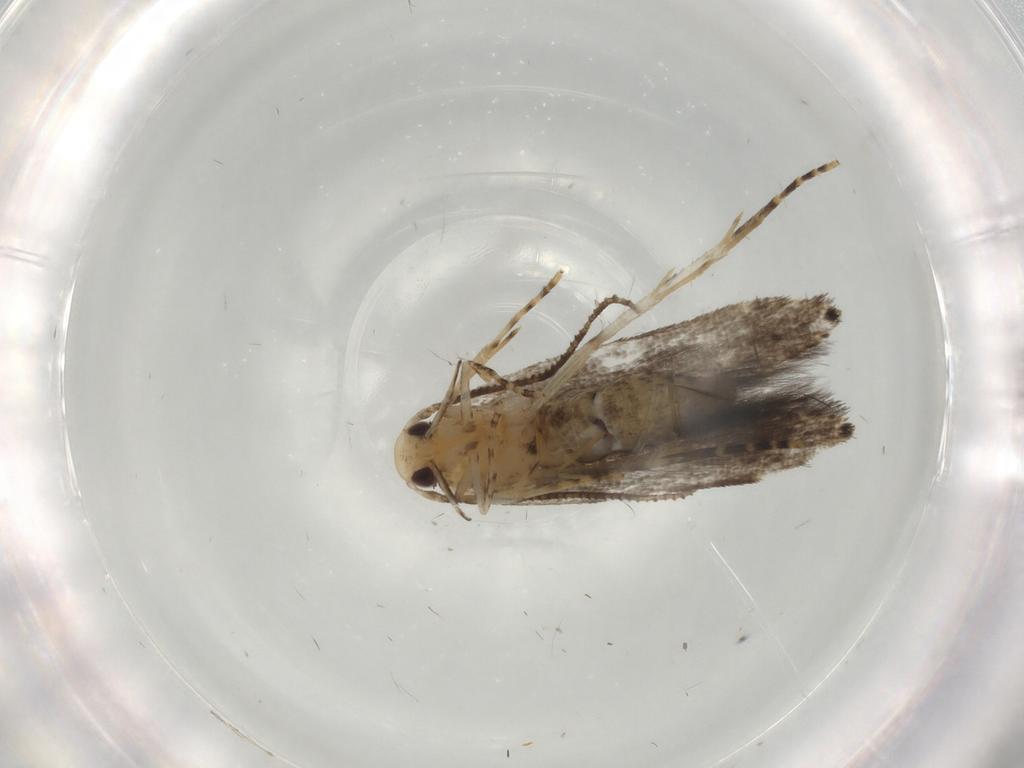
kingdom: Animalia
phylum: Arthropoda
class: Insecta
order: Lepidoptera
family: Cosmopterigidae
